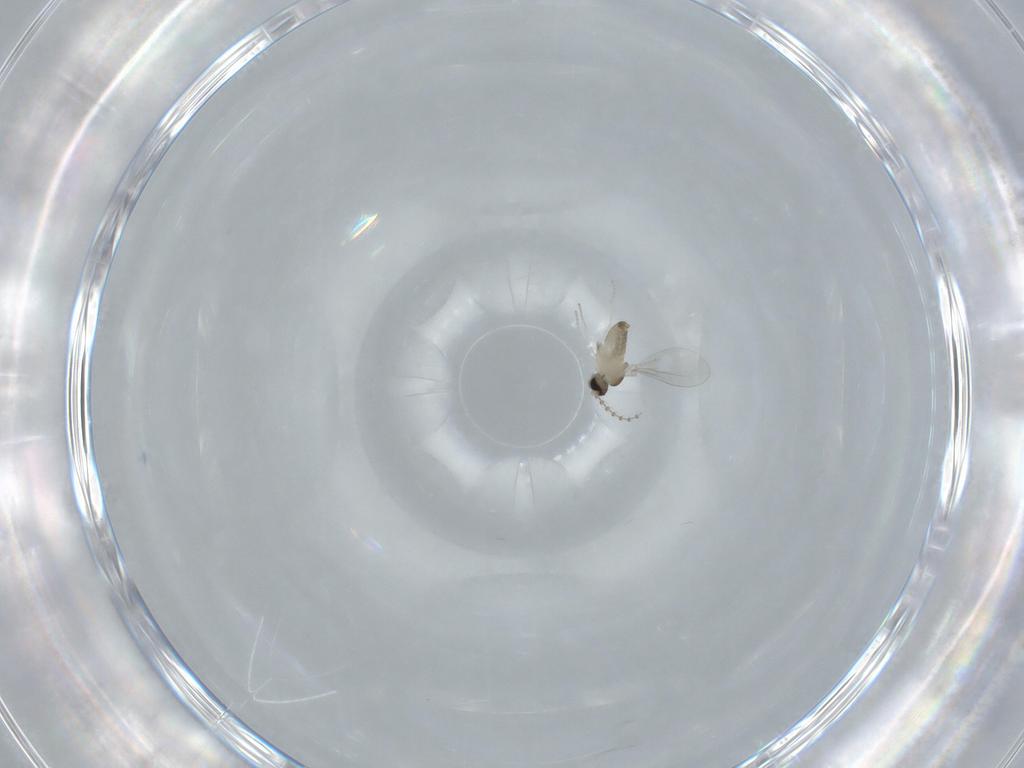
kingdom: Animalia
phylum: Arthropoda
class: Insecta
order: Diptera
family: Cecidomyiidae
